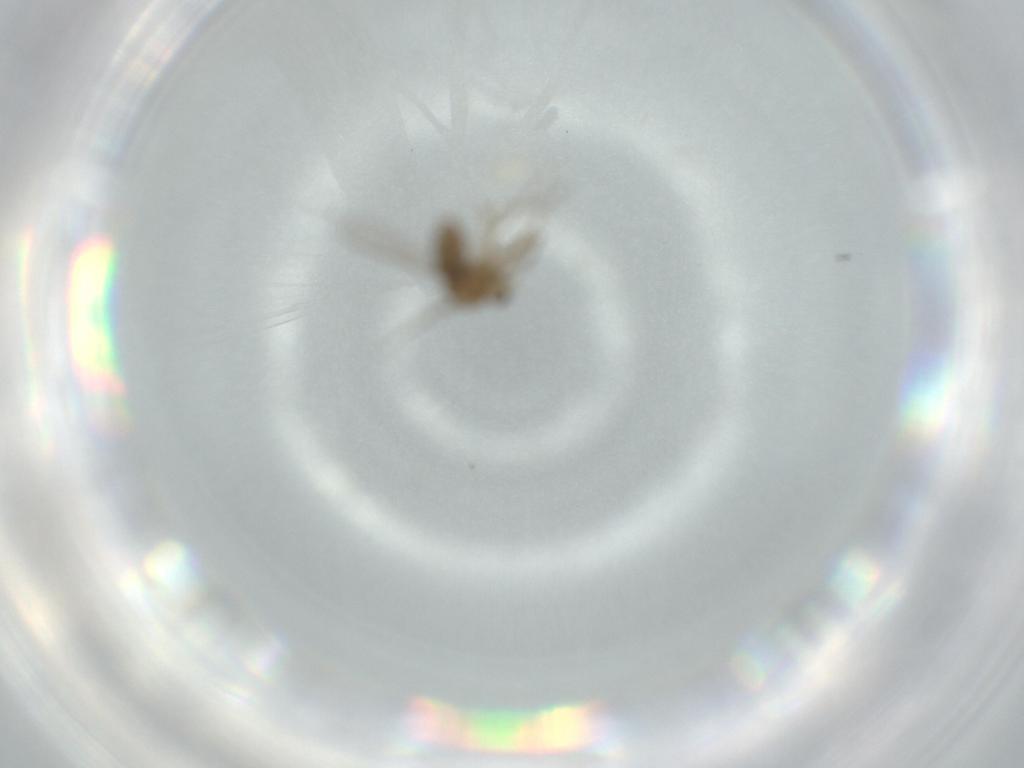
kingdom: Animalia
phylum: Arthropoda
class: Insecta
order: Diptera
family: Chironomidae
